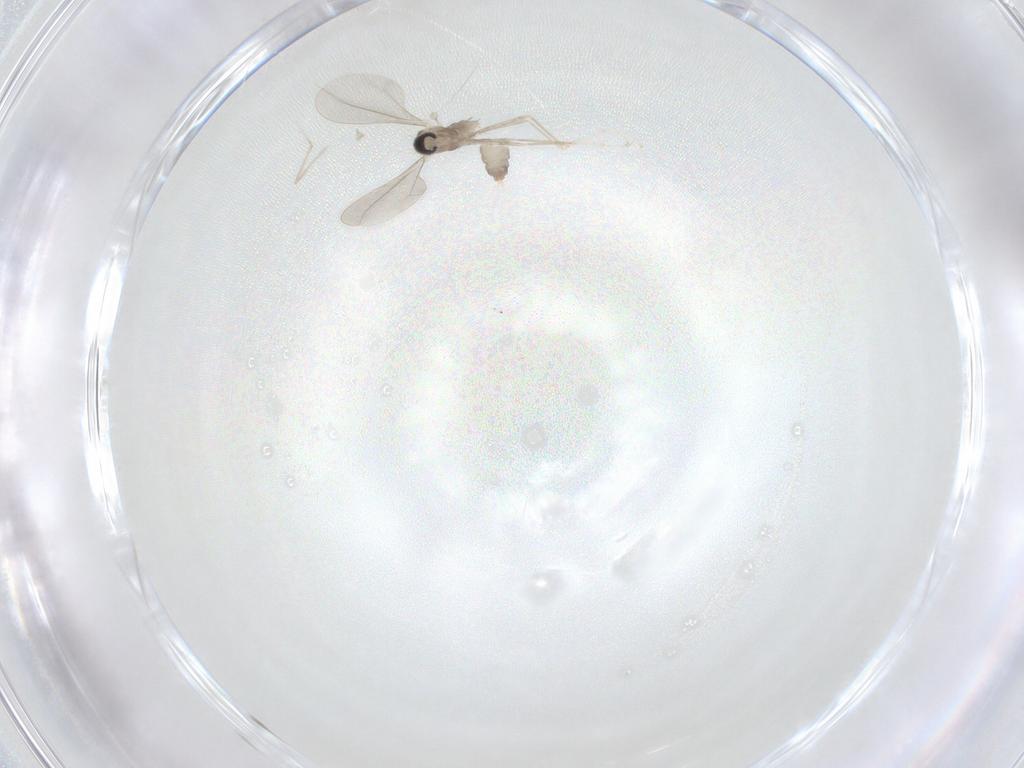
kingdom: Animalia
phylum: Arthropoda
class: Insecta
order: Diptera
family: Cecidomyiidae
